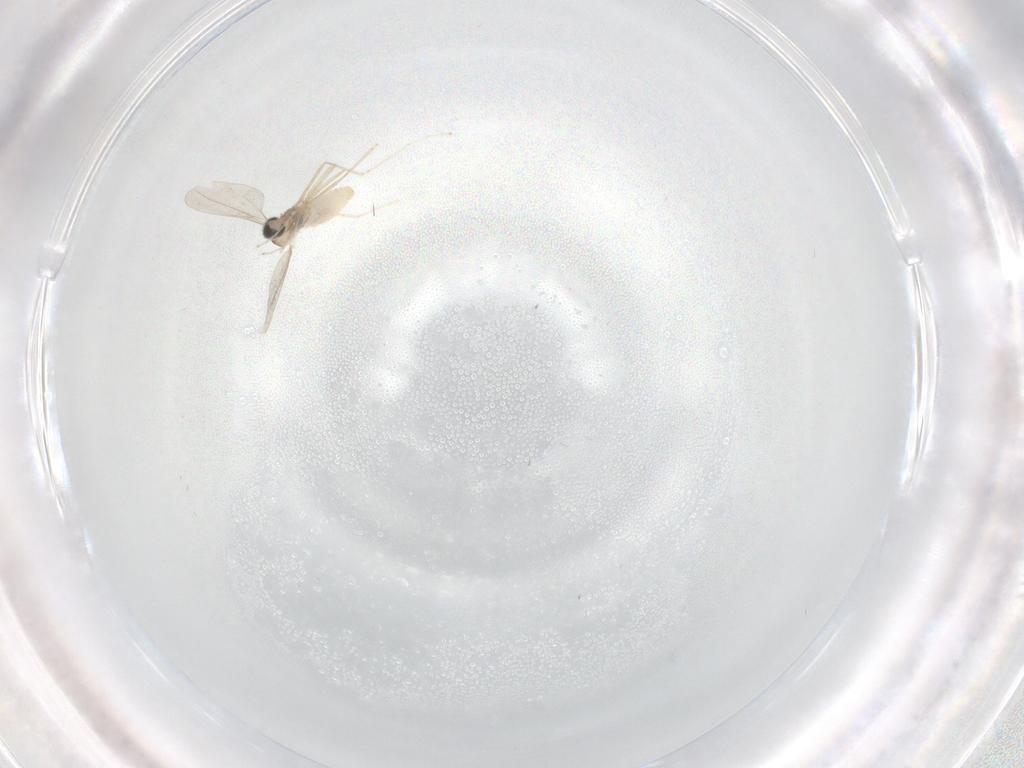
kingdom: Animalia
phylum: Arthropoda
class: Insecta
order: Diptera
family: Cecidomyiidae
